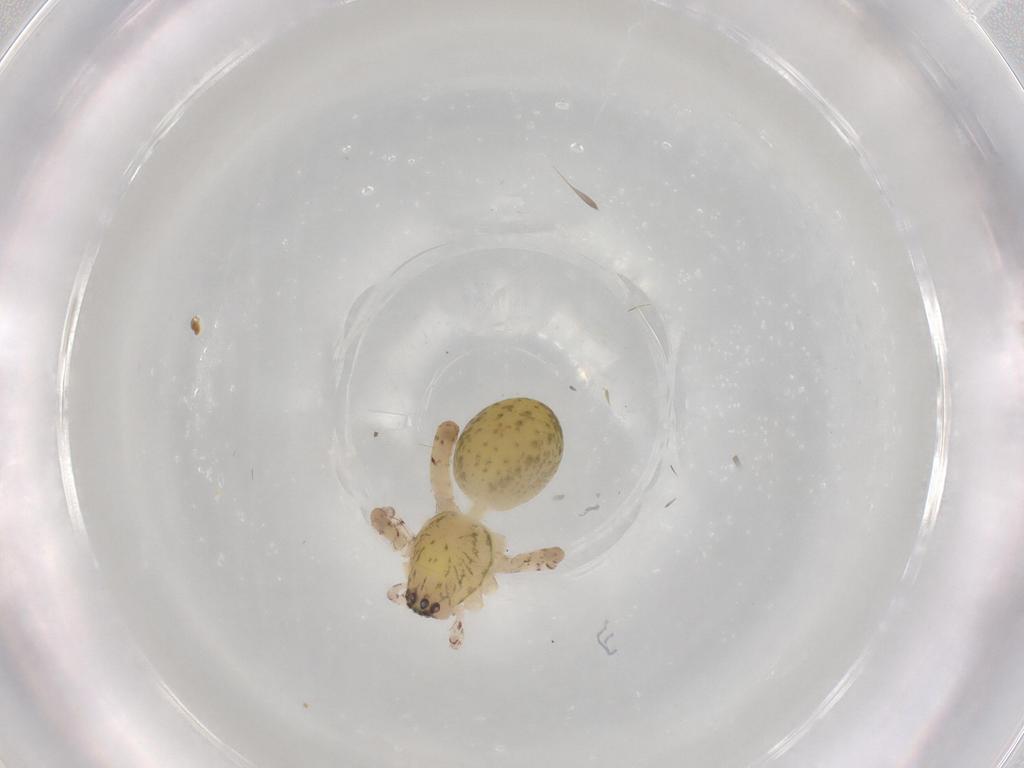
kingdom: Animalia
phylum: Arthropoda
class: Arachnida
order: Araneae
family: Anyphaenidae
